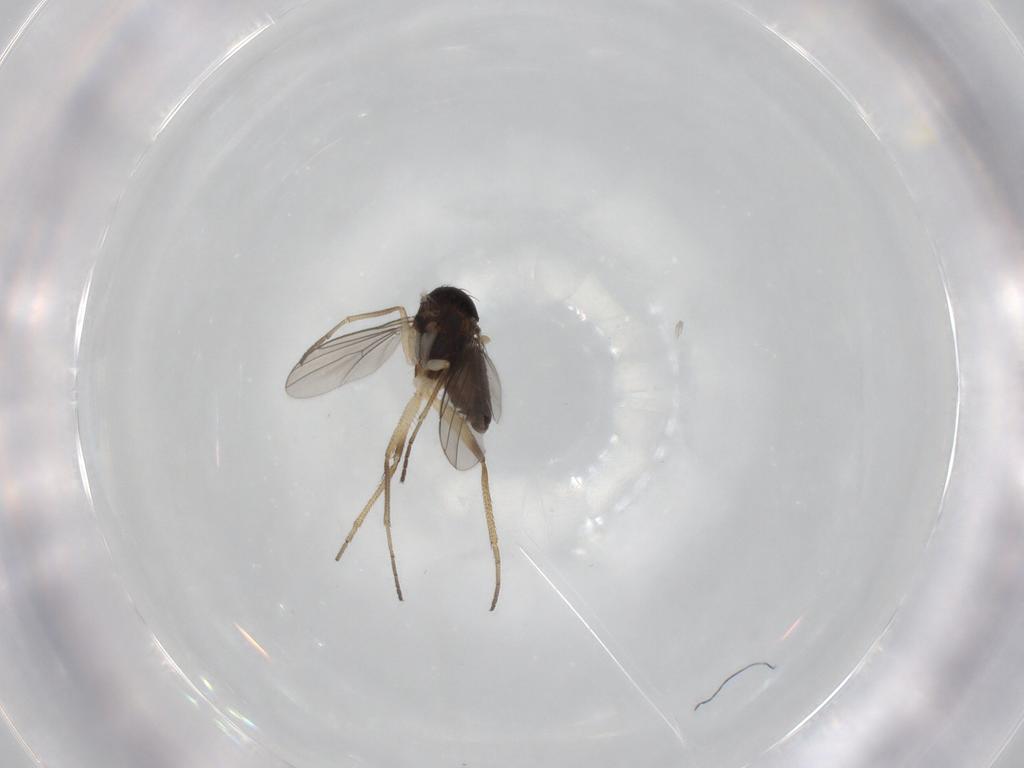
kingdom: Animalia
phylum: Arthropoda
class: Insecta
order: Diptera
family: Dolichopodidae
